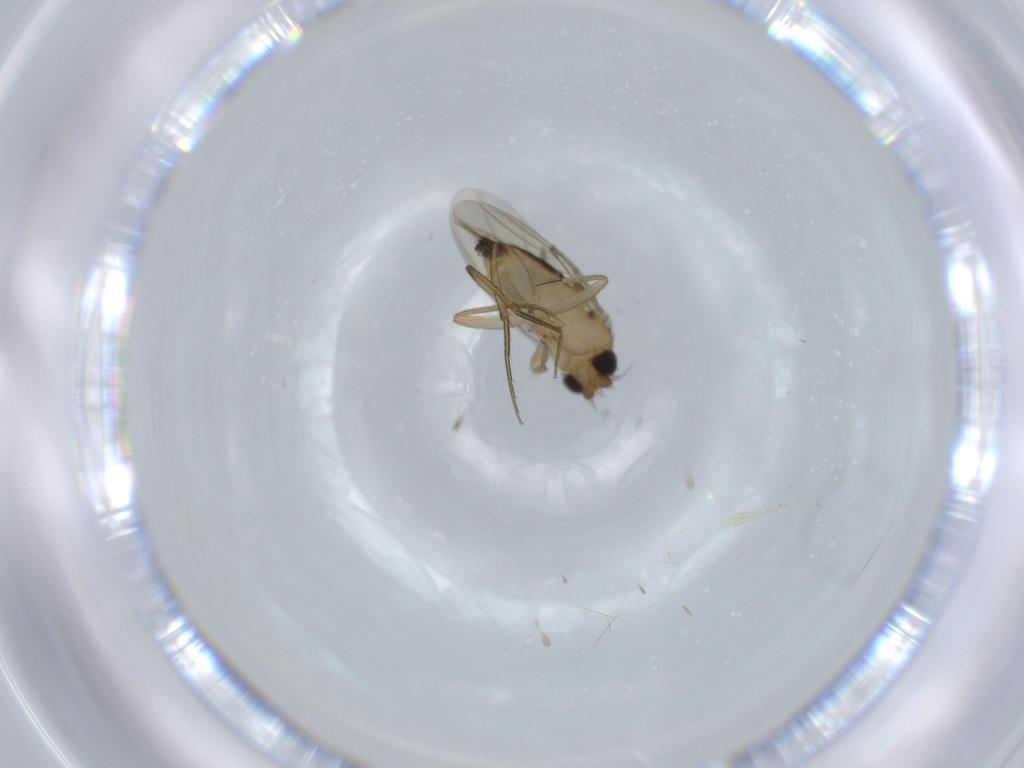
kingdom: Animalia
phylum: Arthropoda
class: Insecta
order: Diptera
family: Phoridae
